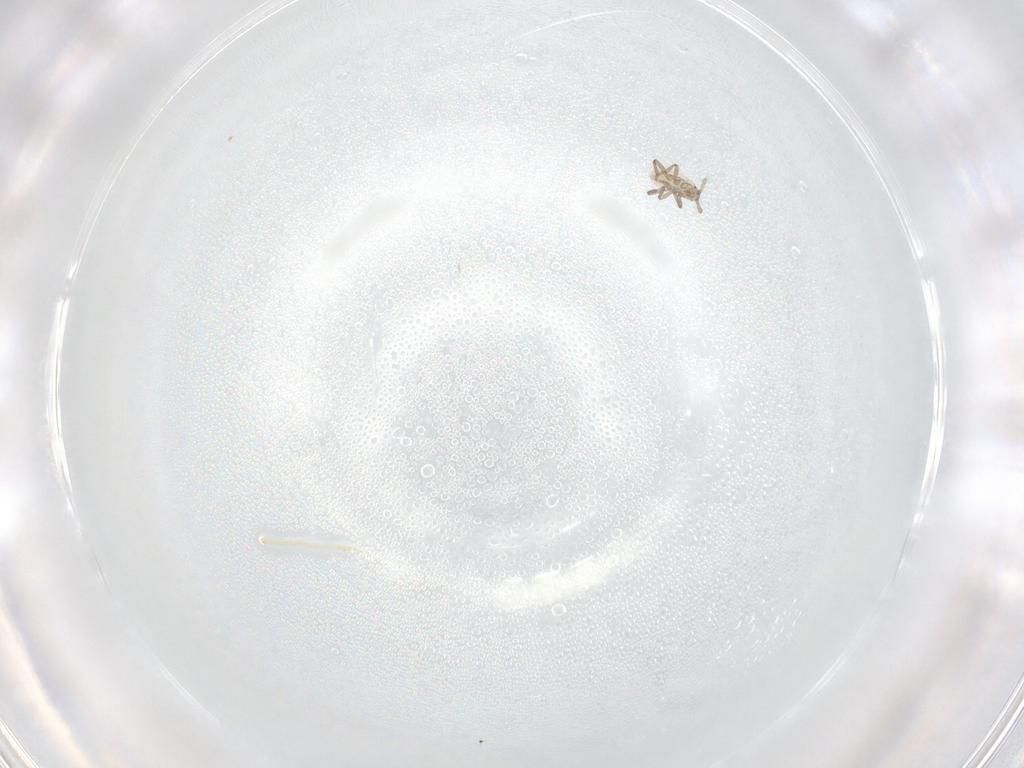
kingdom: Animalia
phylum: Arthropoda
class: Insecta
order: Hemiptera
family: Aphididae
